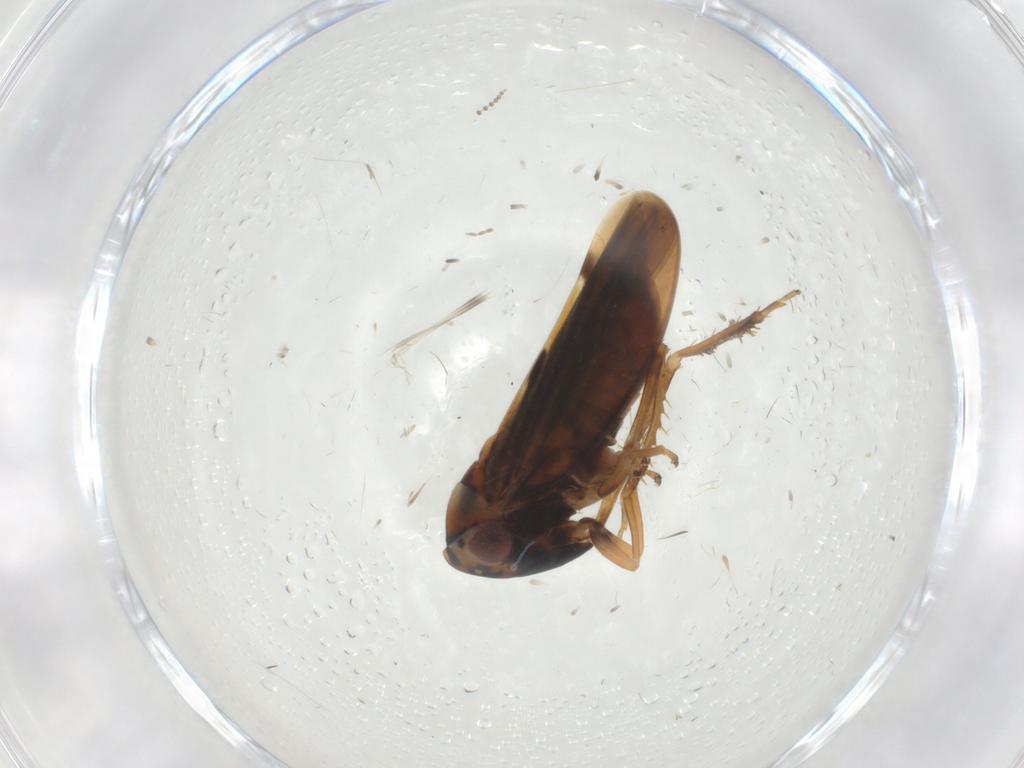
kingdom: Animalia
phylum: Arthropoda
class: Insecta
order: Hemiptera
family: Cicadellidae
